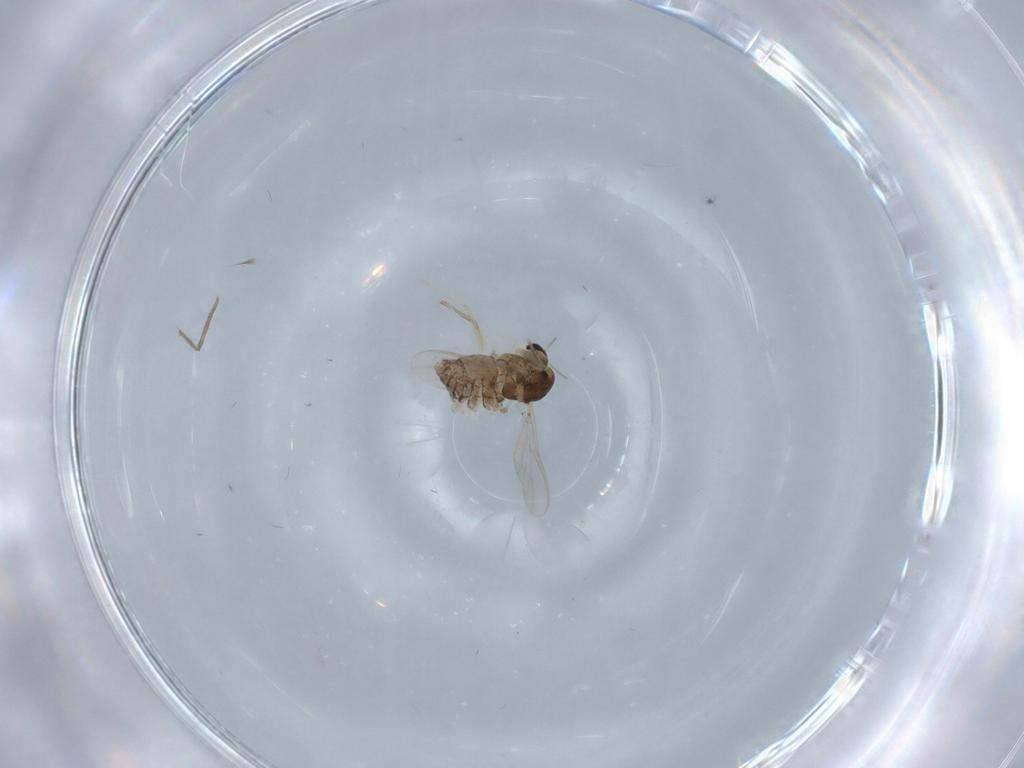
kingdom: Animalia
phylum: Arthropoda
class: Insecta
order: Diptera
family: Chironomidae
